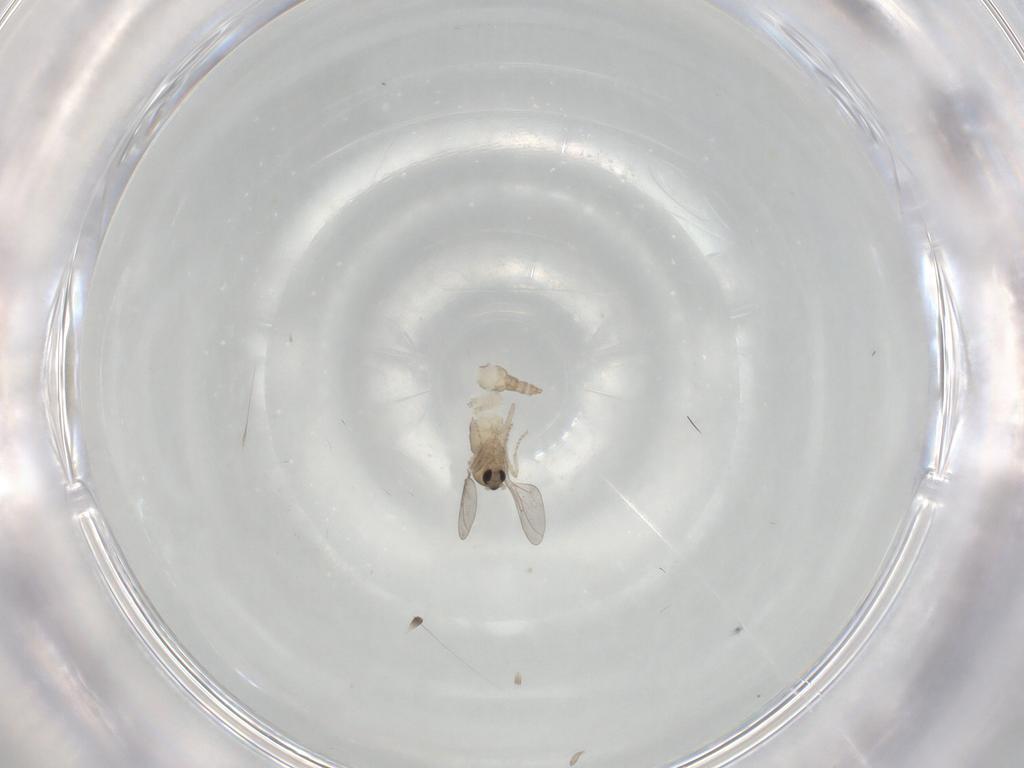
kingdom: Animalia
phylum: Arthropoda
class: Insecta
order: Diptera
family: Cecidomyiidae
